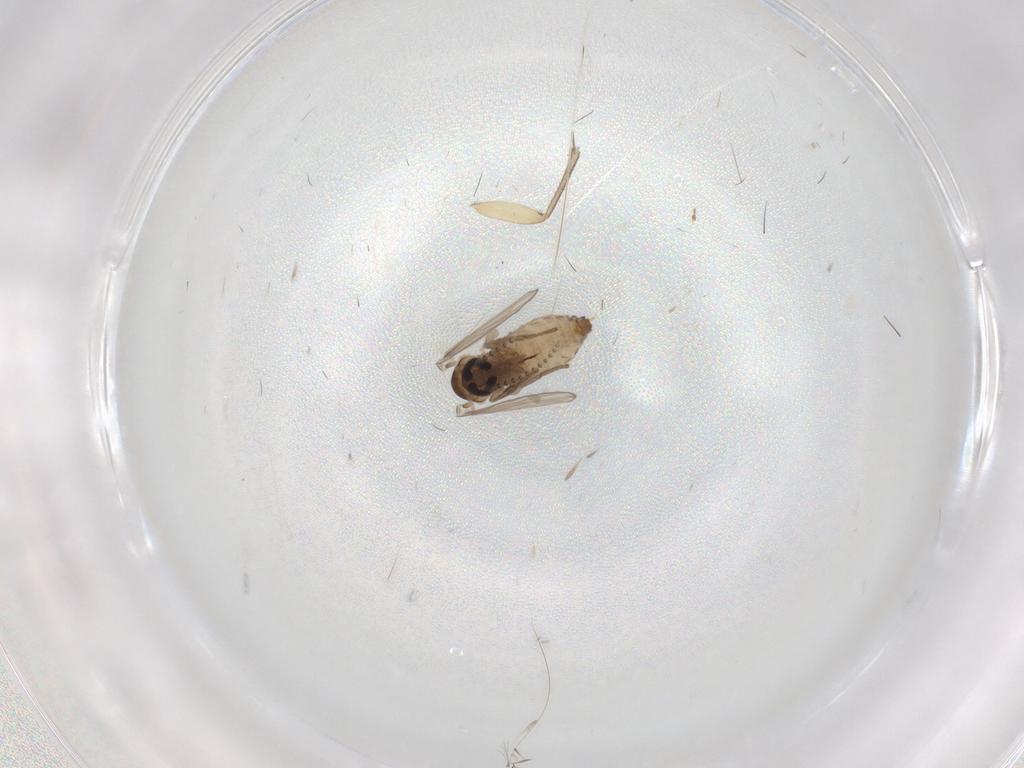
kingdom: Animalia
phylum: Arthropoda
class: Insecta
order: Diptera
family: Psychodidae
